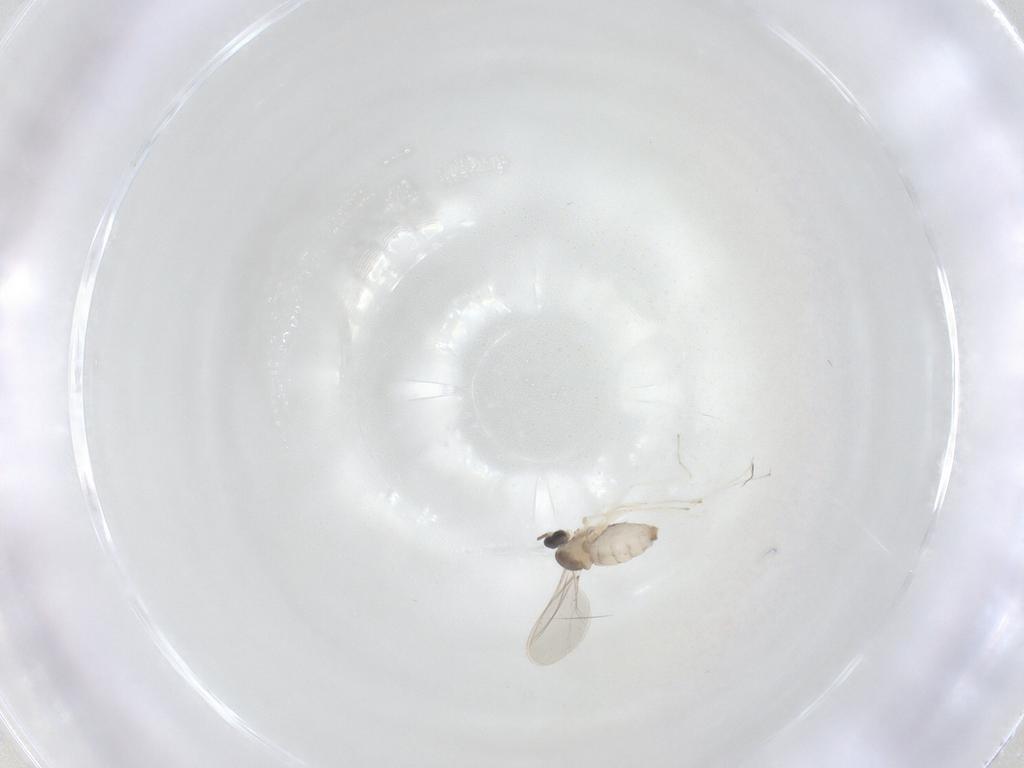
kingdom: Animalia
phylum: Arthropoda
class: Insecta
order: Diptera
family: Cecidomyiidae
